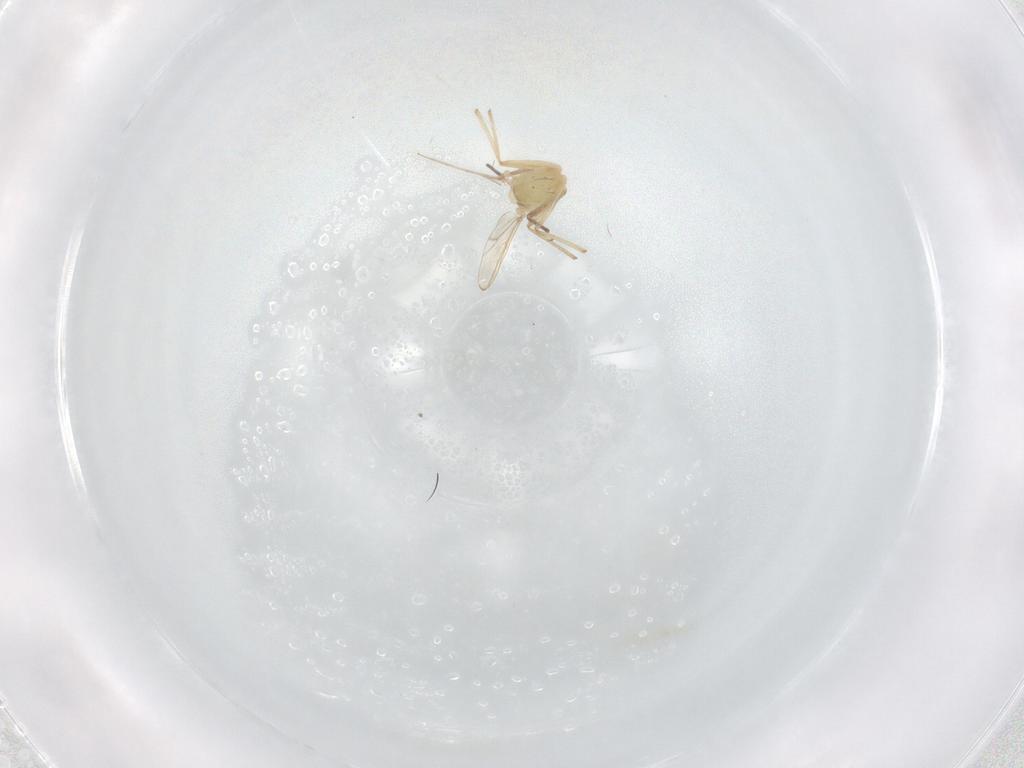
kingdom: Animalia
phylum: Arthropoda
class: Insecta
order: Diptera
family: Chironomidae
